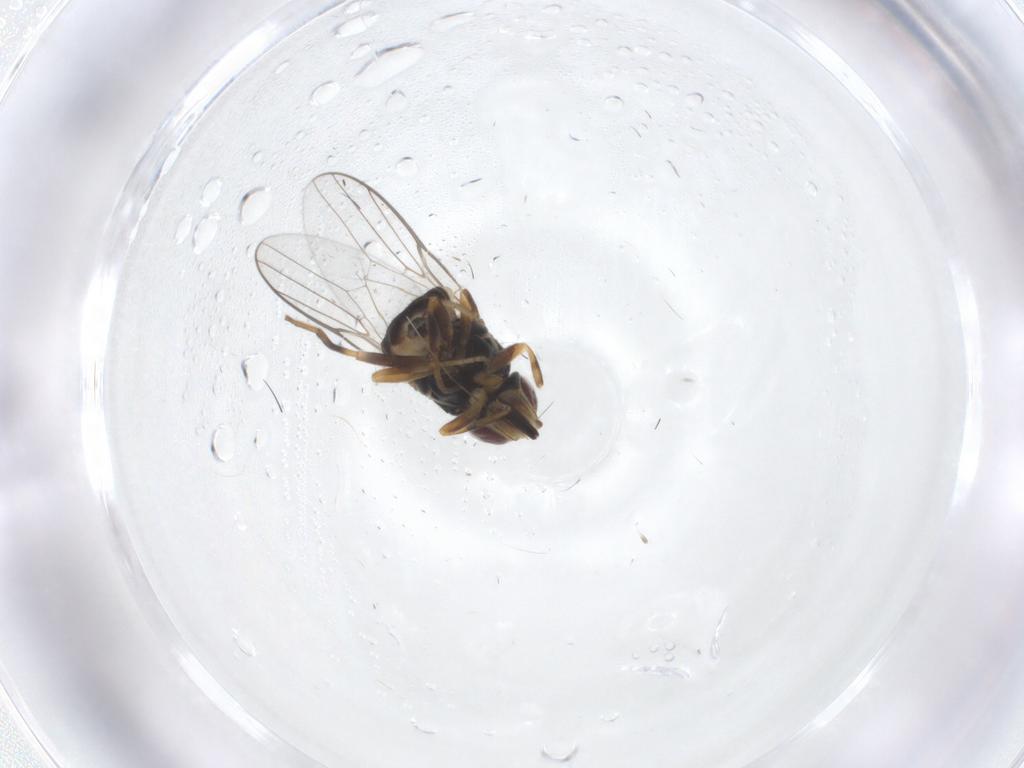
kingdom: Animalia
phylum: Arthropoda
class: Insecta
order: Diptera
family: Chloropidae
